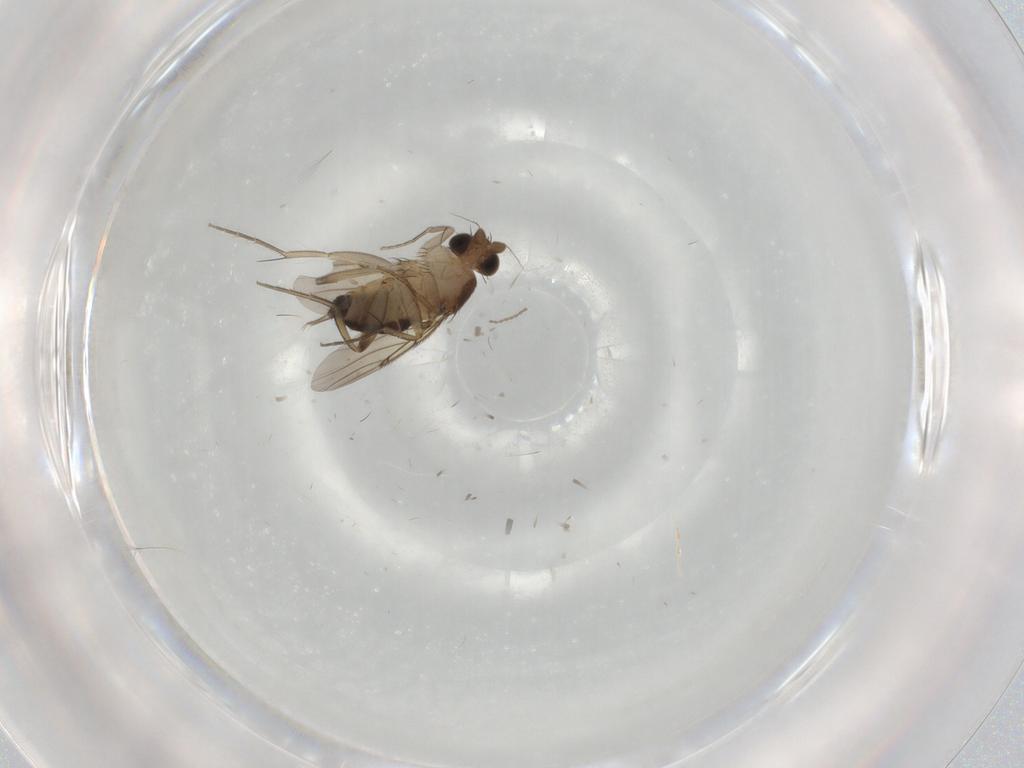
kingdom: Animalia
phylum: Arthropoda
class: Insecta
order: Diptera
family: Phoridae
